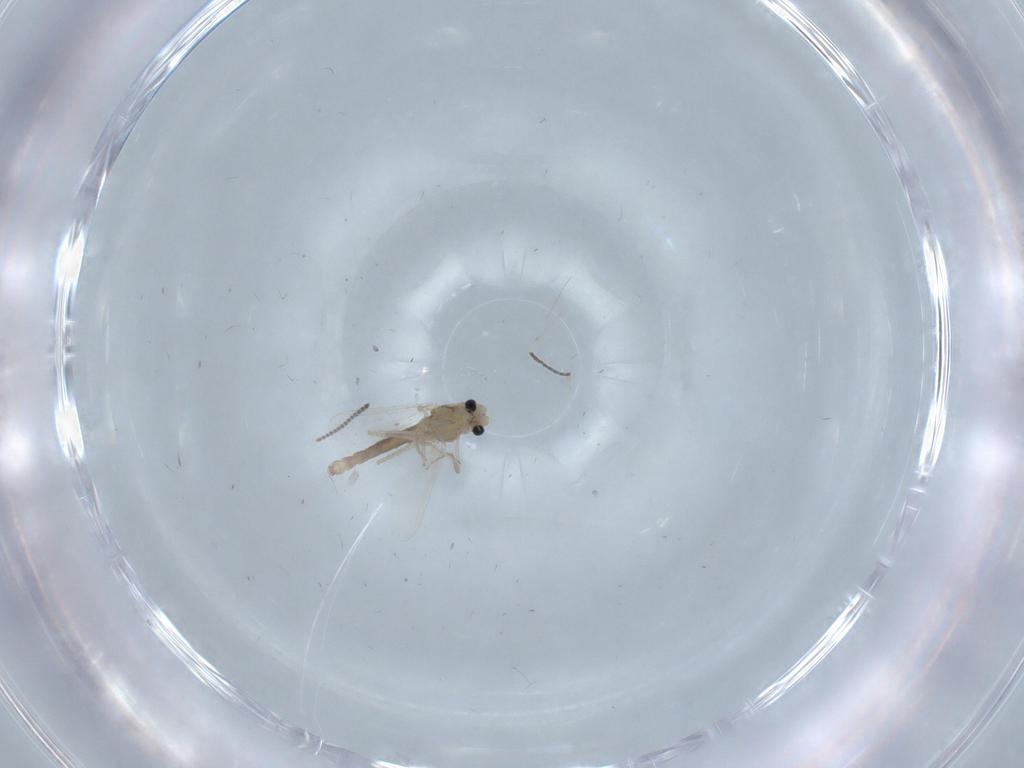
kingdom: Animalia
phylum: Arthropoda
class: Insecta
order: Diptera
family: Chironomidae
